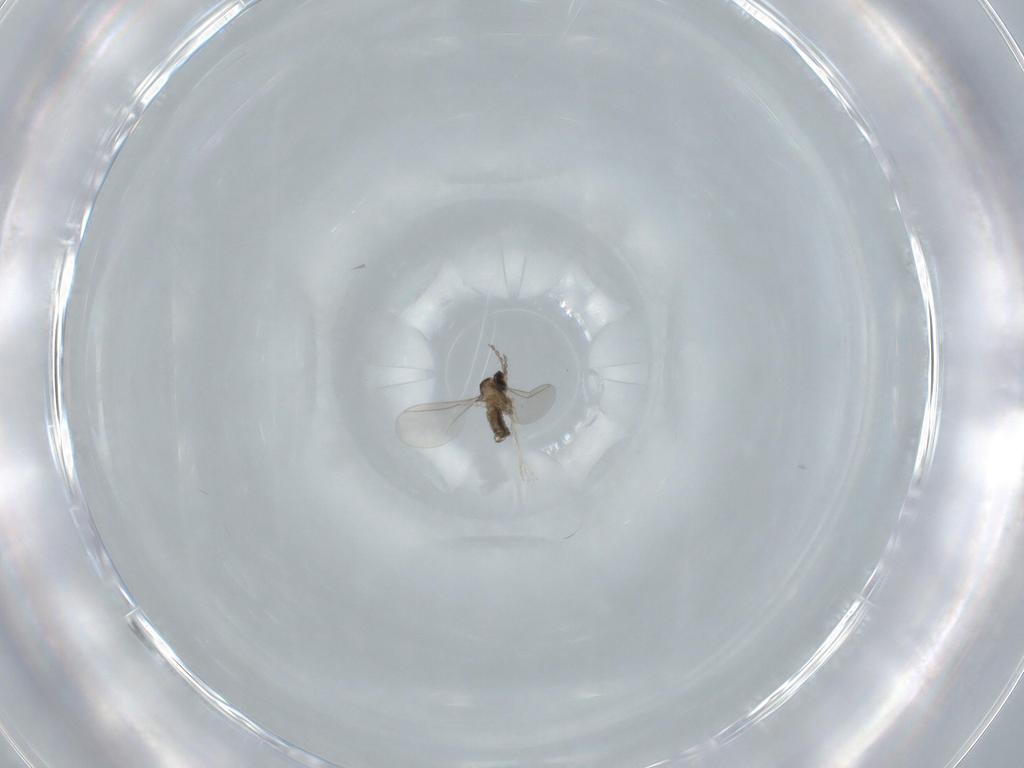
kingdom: Animalia
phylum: Arthropoda
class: Insecta
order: Diptera
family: Cecidomyiidae
